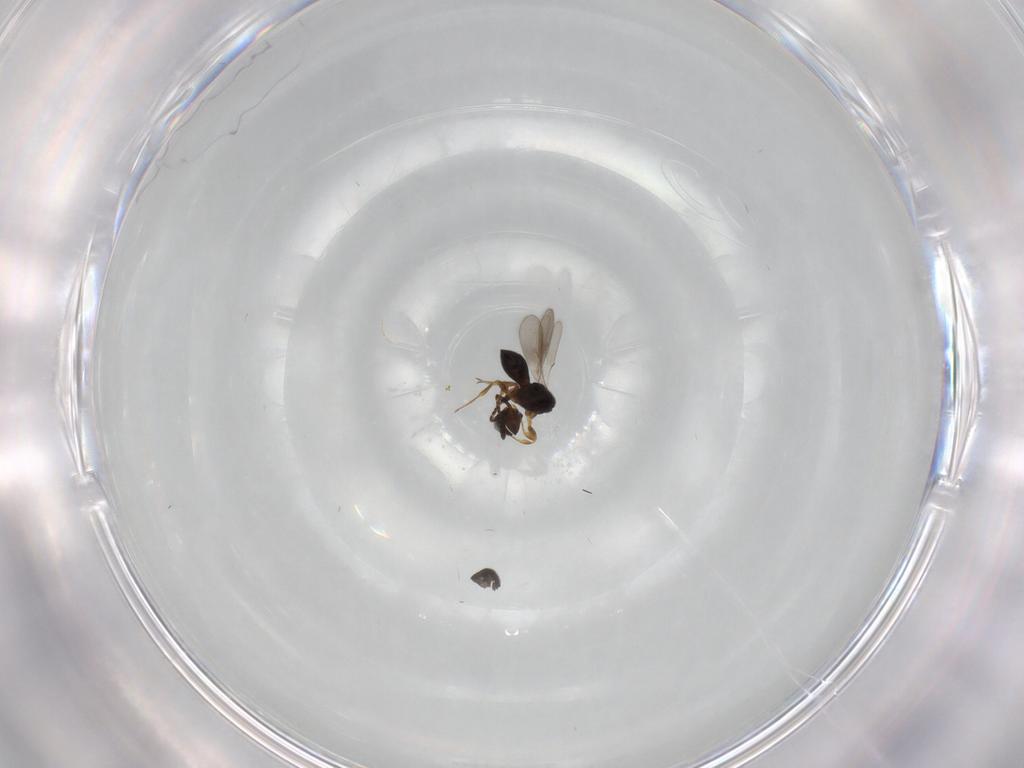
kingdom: Animalia
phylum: Arthropoda
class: Insecta
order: Hymenoptera
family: Scelionidae
